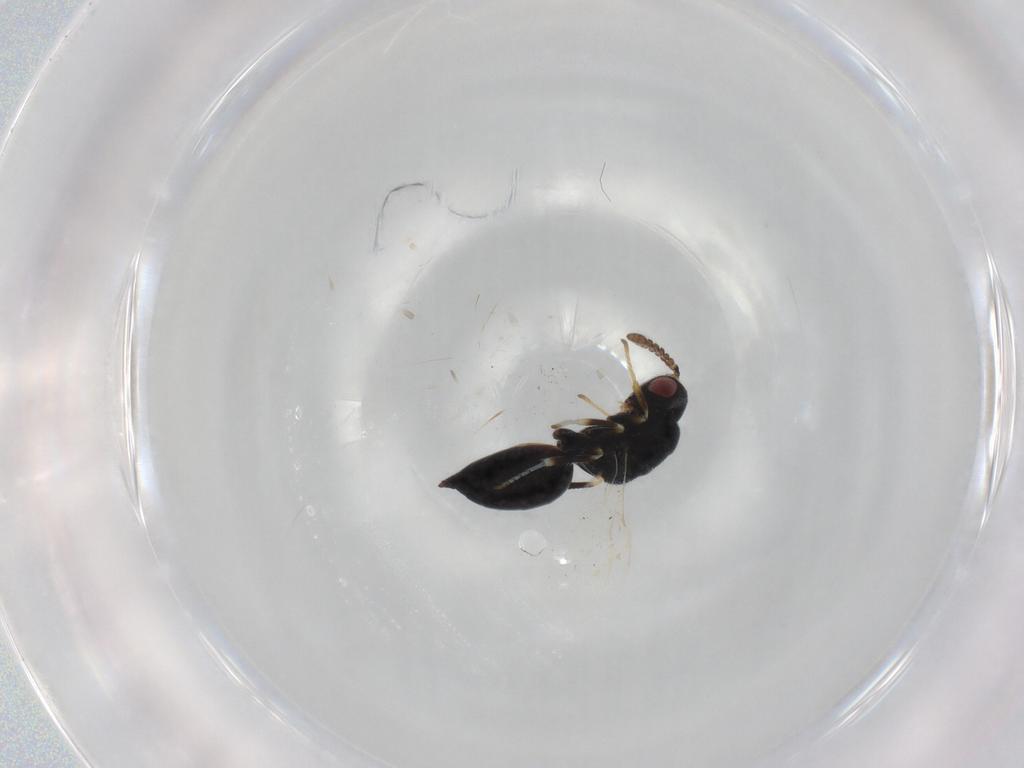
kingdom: Animalia
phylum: Arthropoda
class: Insecta
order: Hymenoptera
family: Eurytomidae
